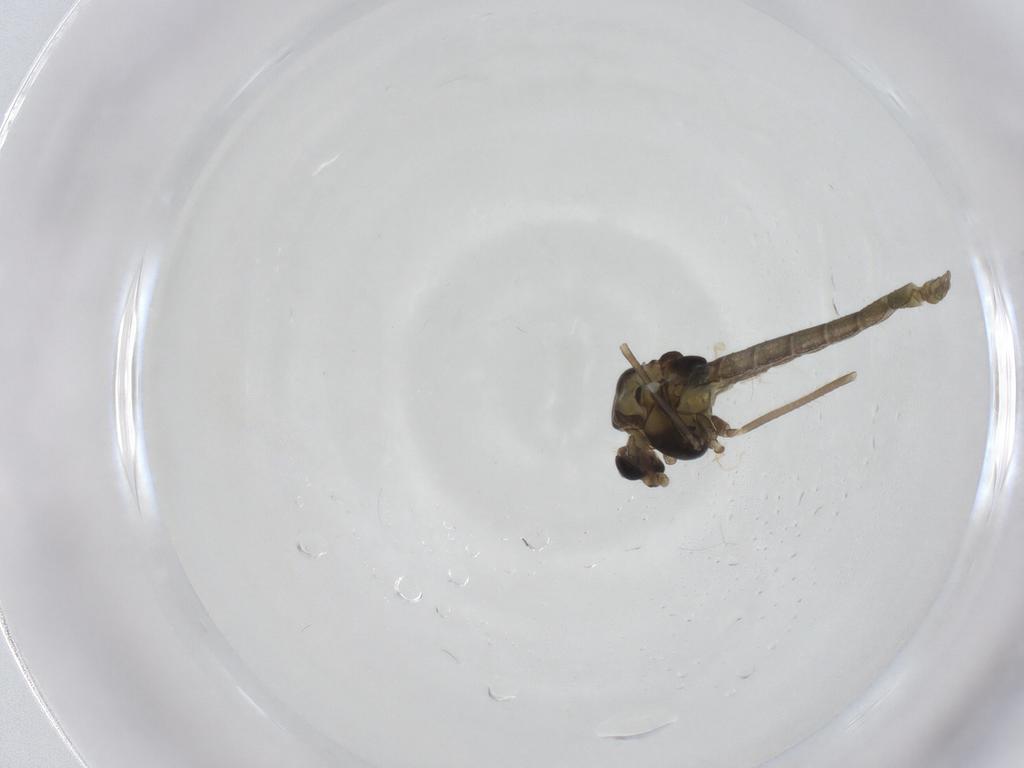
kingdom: Animalia
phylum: Arthropoda
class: Insecta
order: Diptera
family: Chironomidae
